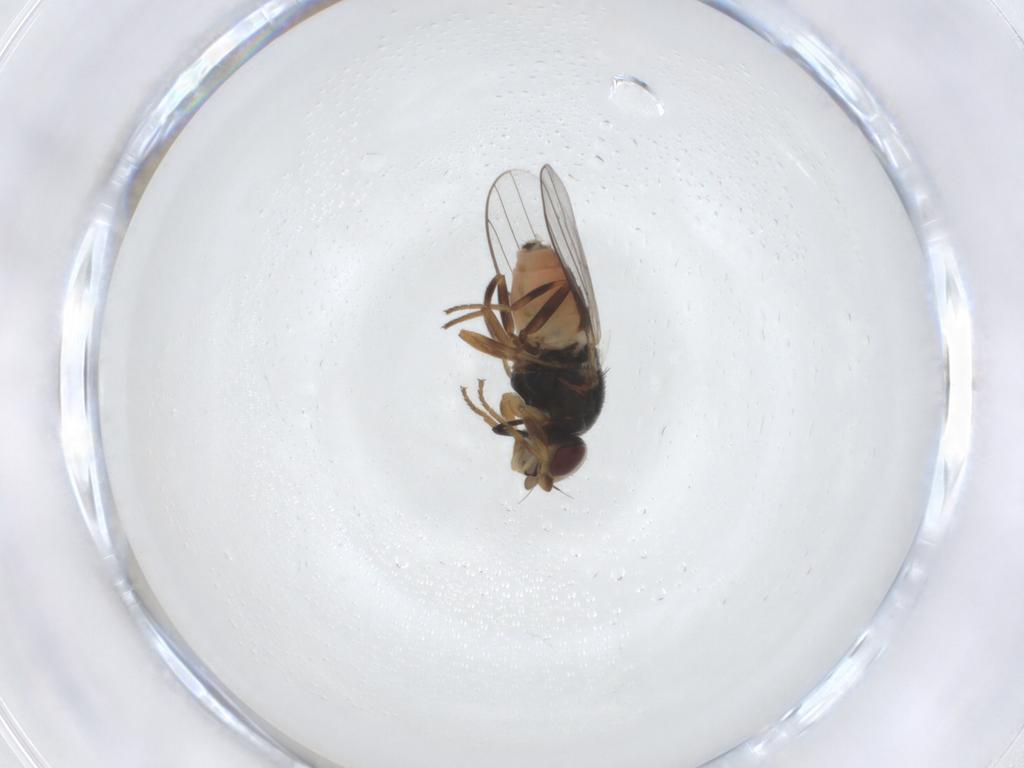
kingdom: Animalia
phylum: Arthropoda
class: Insecta
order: Diptera
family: Chloropidae
